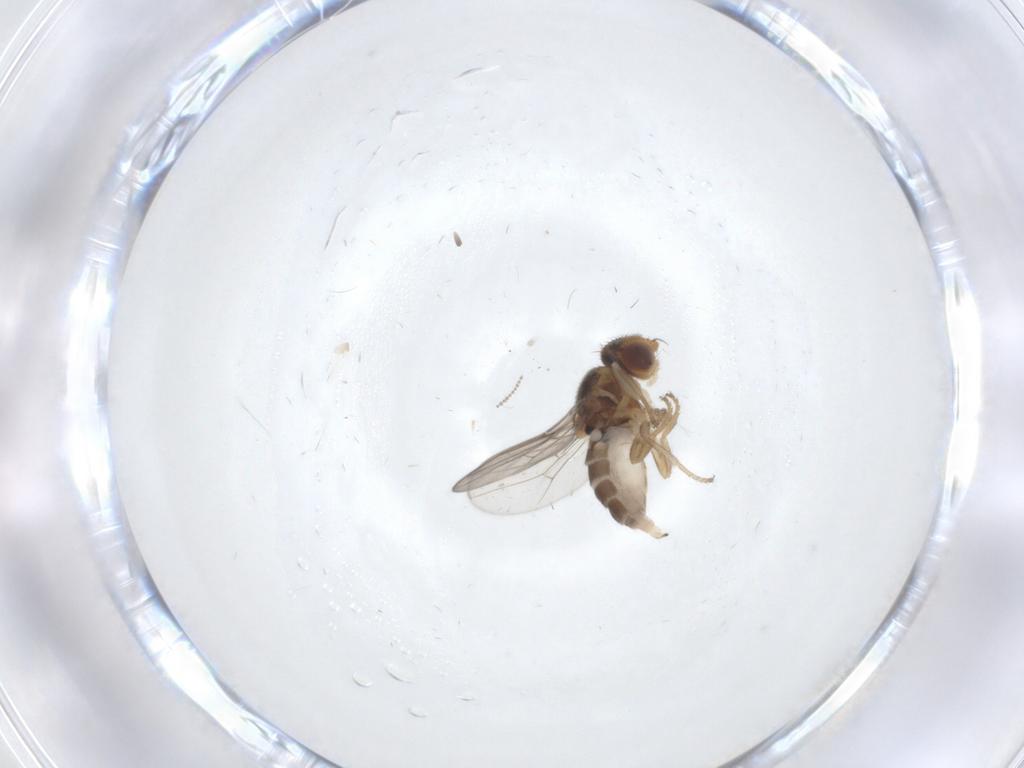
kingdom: Animalia
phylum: Arthropoda
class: Insecta
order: Diptera
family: Chloropidae
